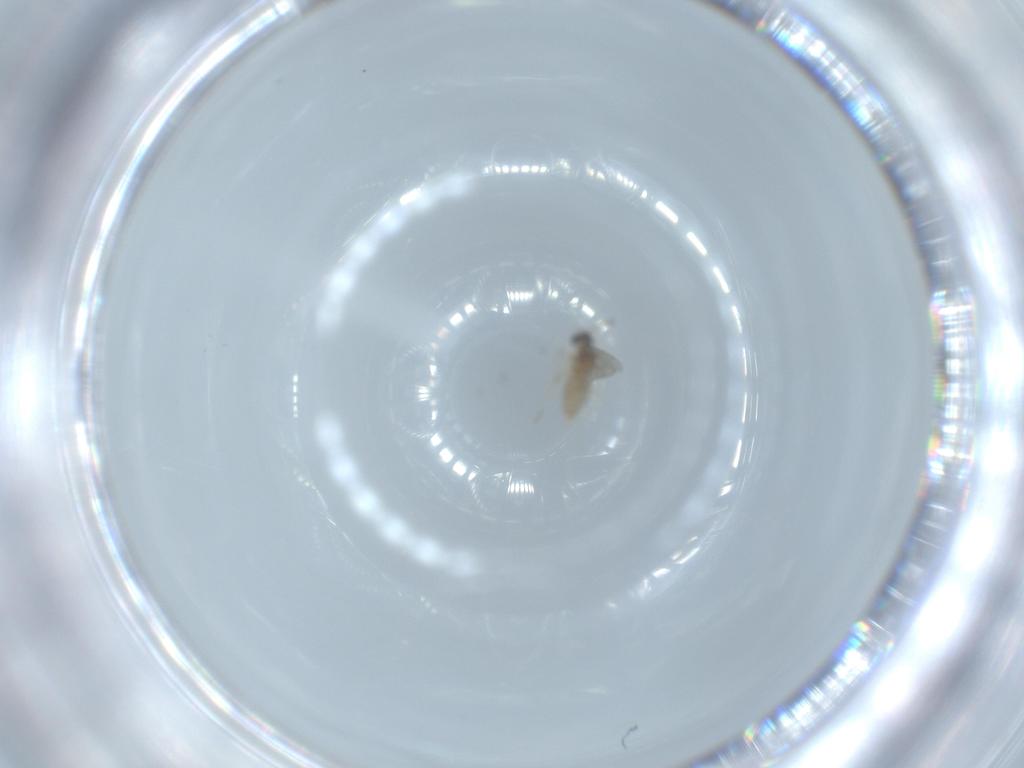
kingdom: Animalia
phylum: Arthropoda
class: Insecta
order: Diptera
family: Cecidomyiidae
